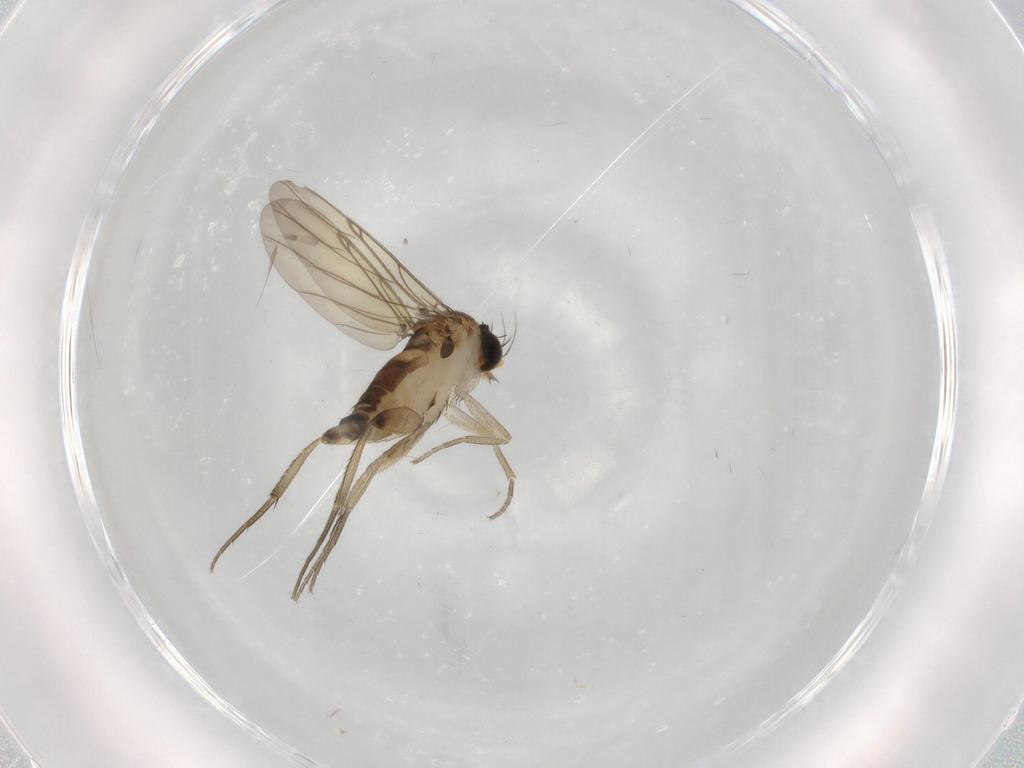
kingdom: Animalia
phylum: Arthropoda
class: Insecta
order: Diptera
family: Phoridae
